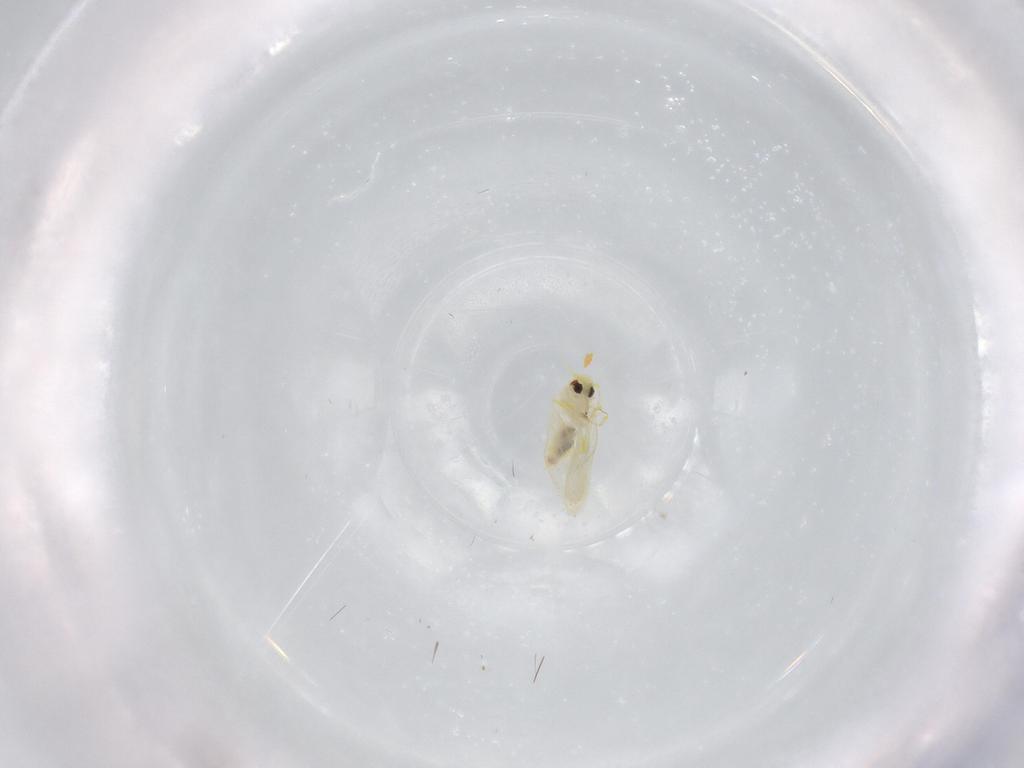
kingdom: Animalia
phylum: Arthropoda
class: Insecta
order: Hemiptera
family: Aleyrodidae
